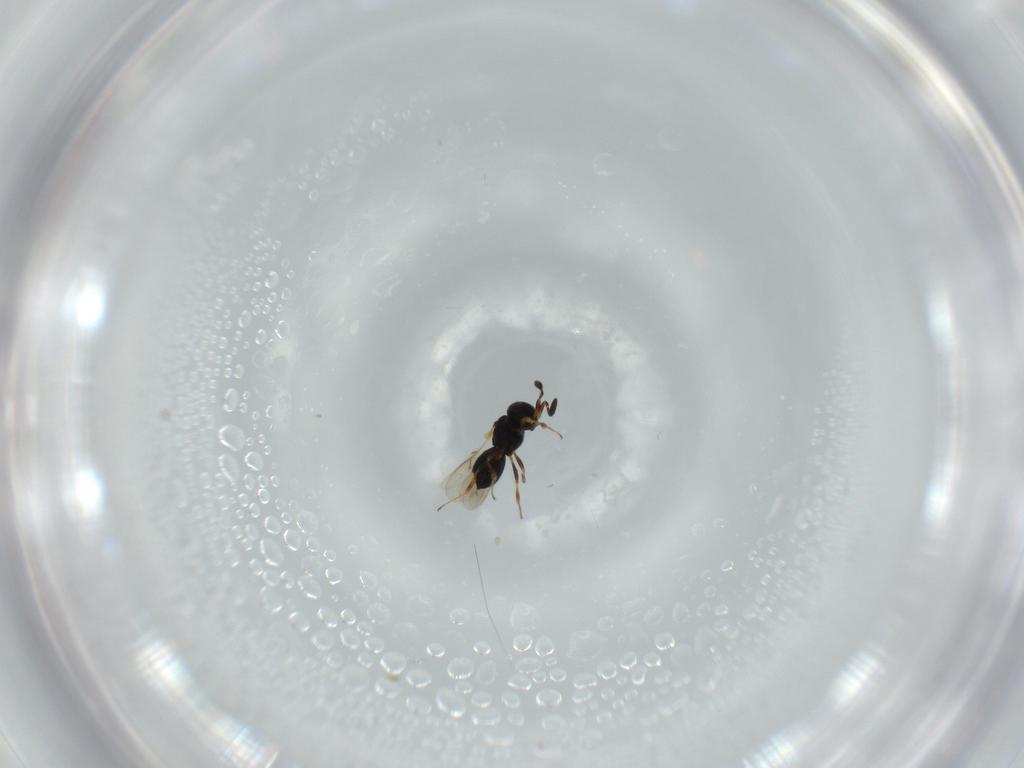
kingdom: Animalia
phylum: Arthropoda
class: Insecta
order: Hymenoptera
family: Scelionidae
